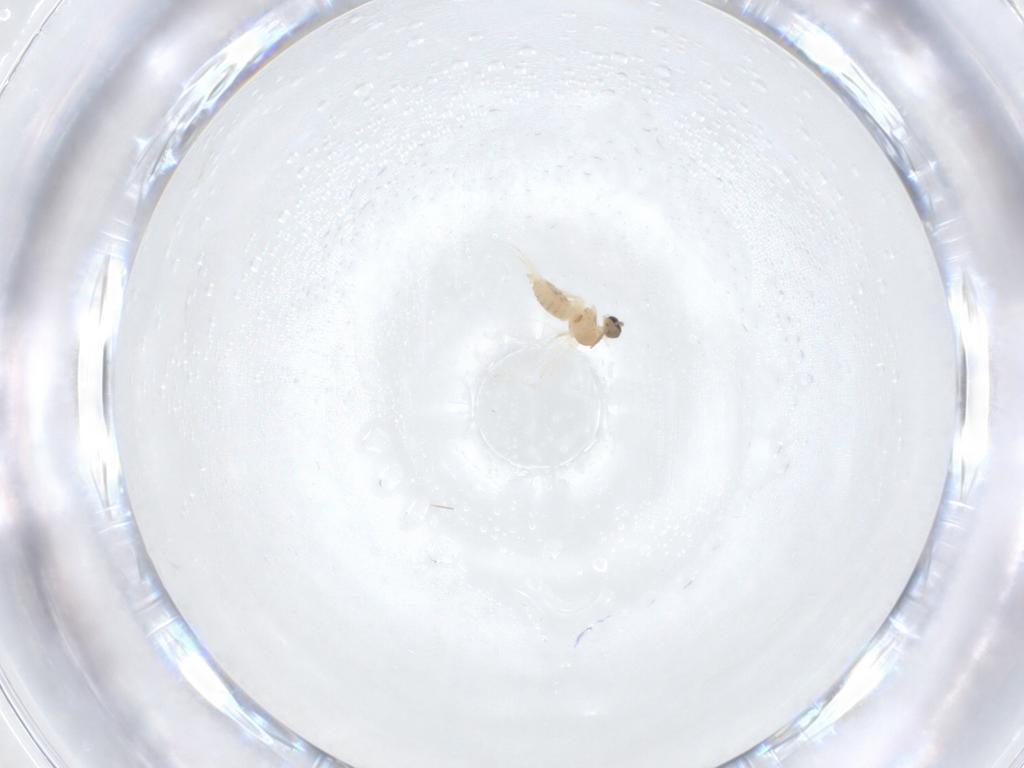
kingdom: Animalia
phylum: Arthropoda
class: Insecta
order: Diptera
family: Cecidomyiidae
